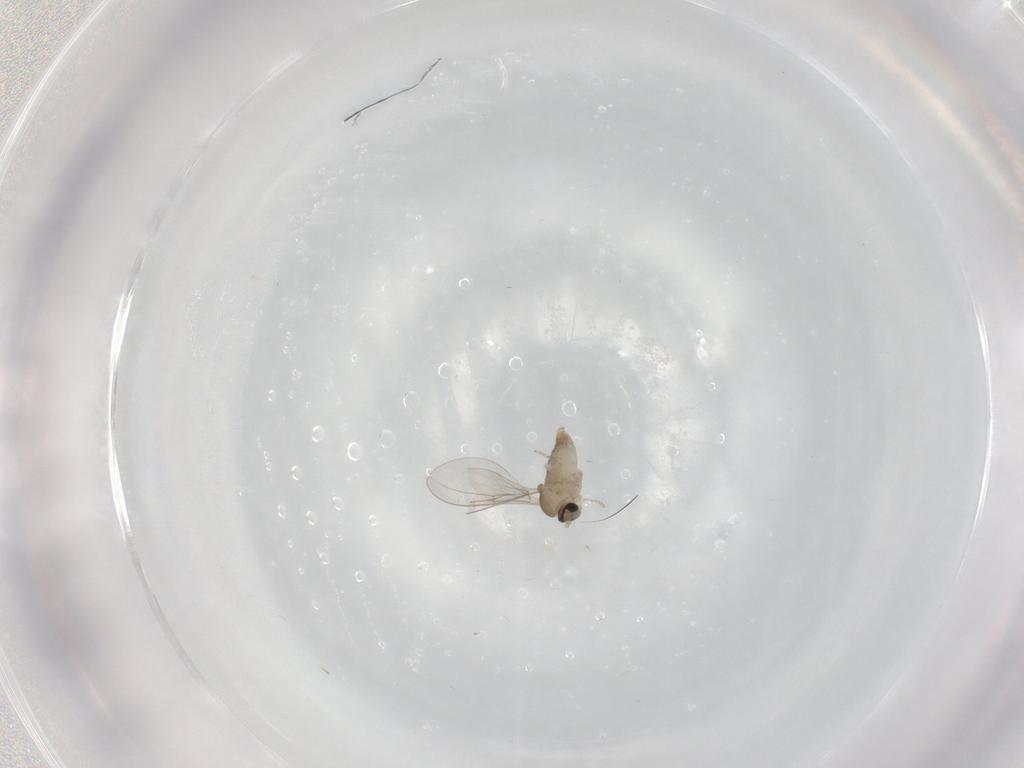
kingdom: Animalia
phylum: Arthropoda
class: Insecta
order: Diptera
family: Cecidomyiidae
